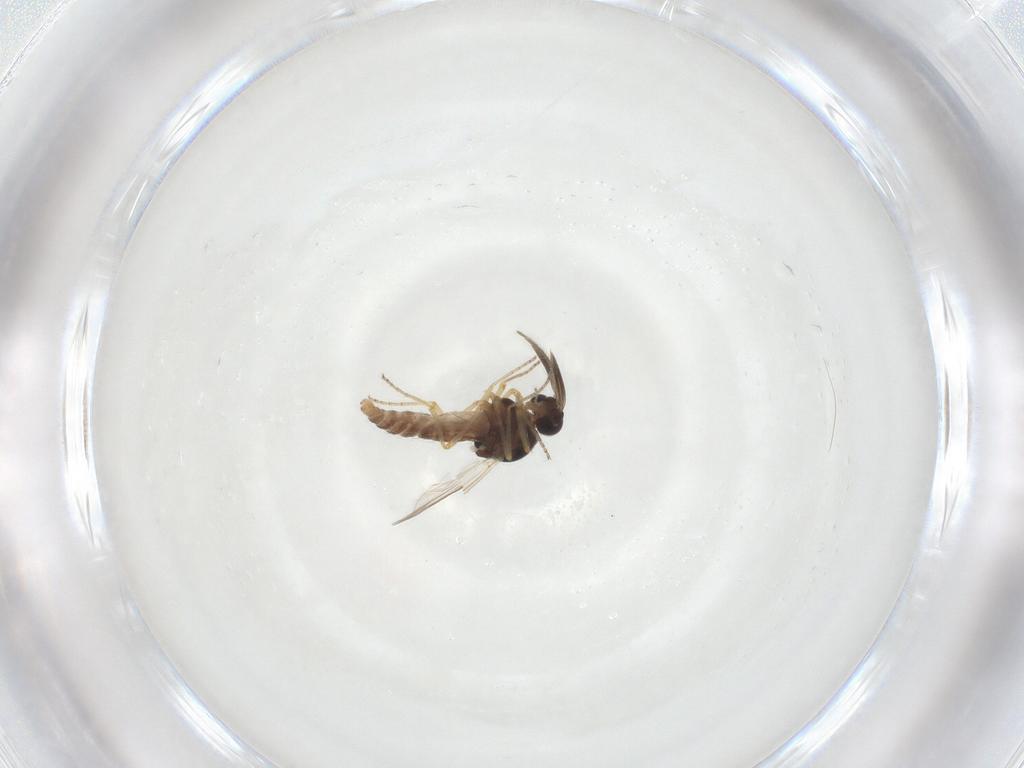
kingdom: Animalia
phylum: Arthropoda
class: Insecta
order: Diptera
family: Ceratopogonidae
